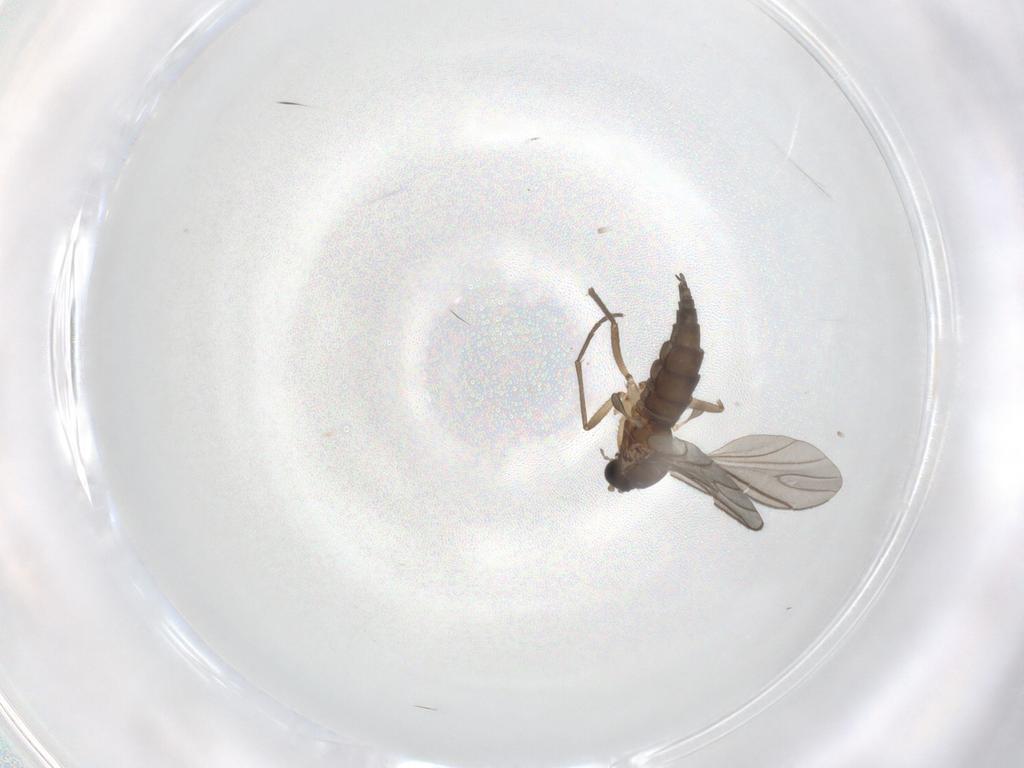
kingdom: Animalia
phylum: Arthropoda
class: Insecta
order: Diptera
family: Sciaridae
